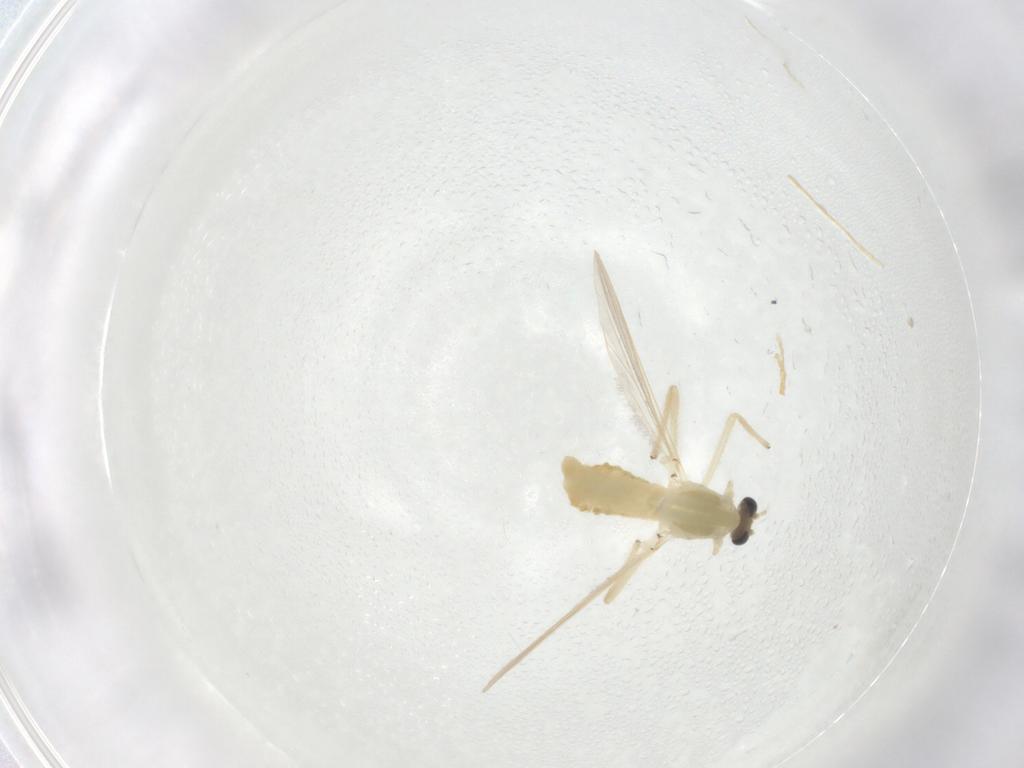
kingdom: Animalia
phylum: Arthropoda
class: Insecta
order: Diptera
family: Chironomidae
